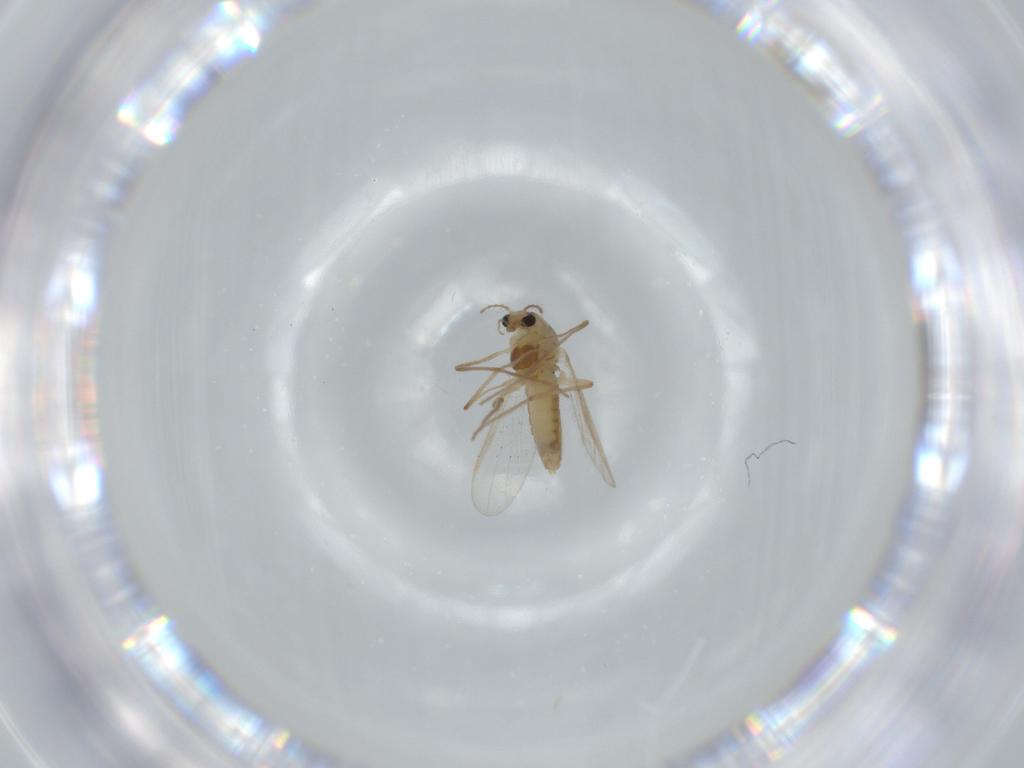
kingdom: Animalia
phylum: Arthropoda
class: Insecta
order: Diptera
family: Chironomidae
